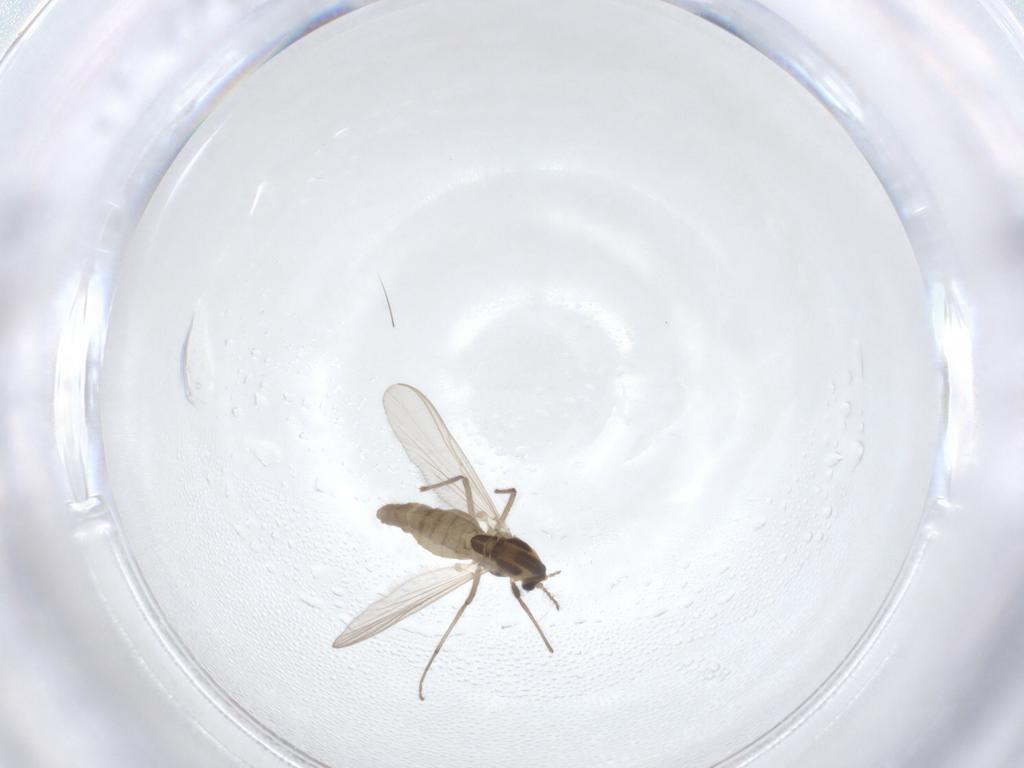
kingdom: Animalia
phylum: Arthropoda
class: Insecta
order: Diptera
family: Chironomidae
